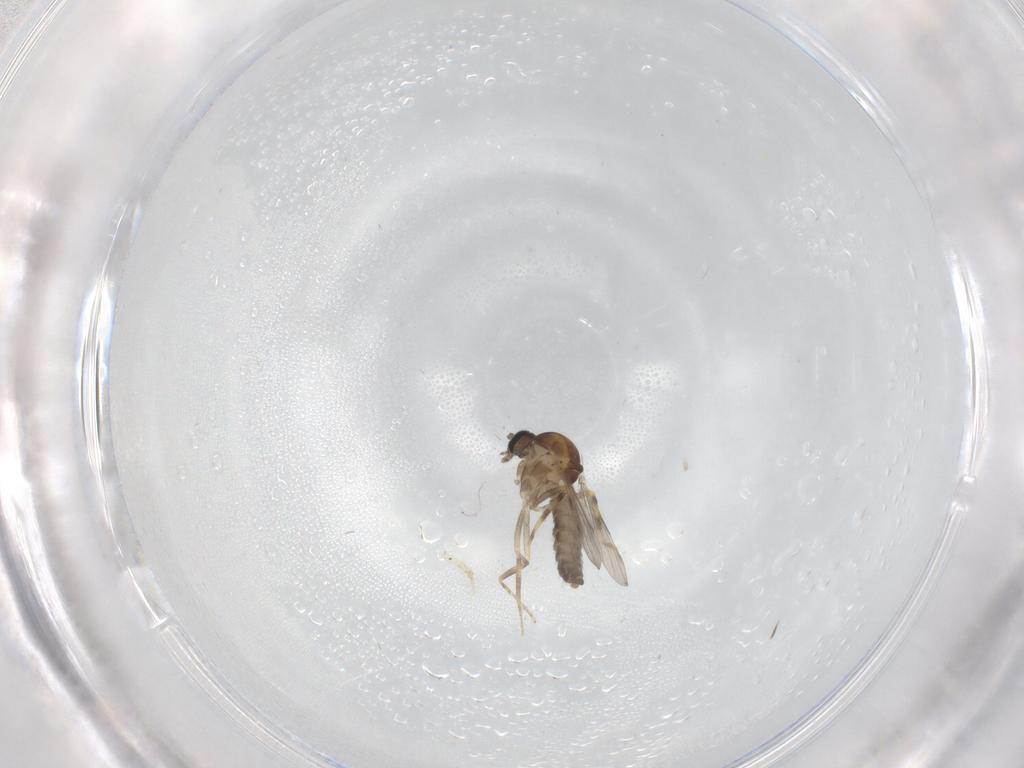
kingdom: Animalia
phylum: Arthropoda
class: Insecta
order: Diptera
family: Ceratopogonidae
